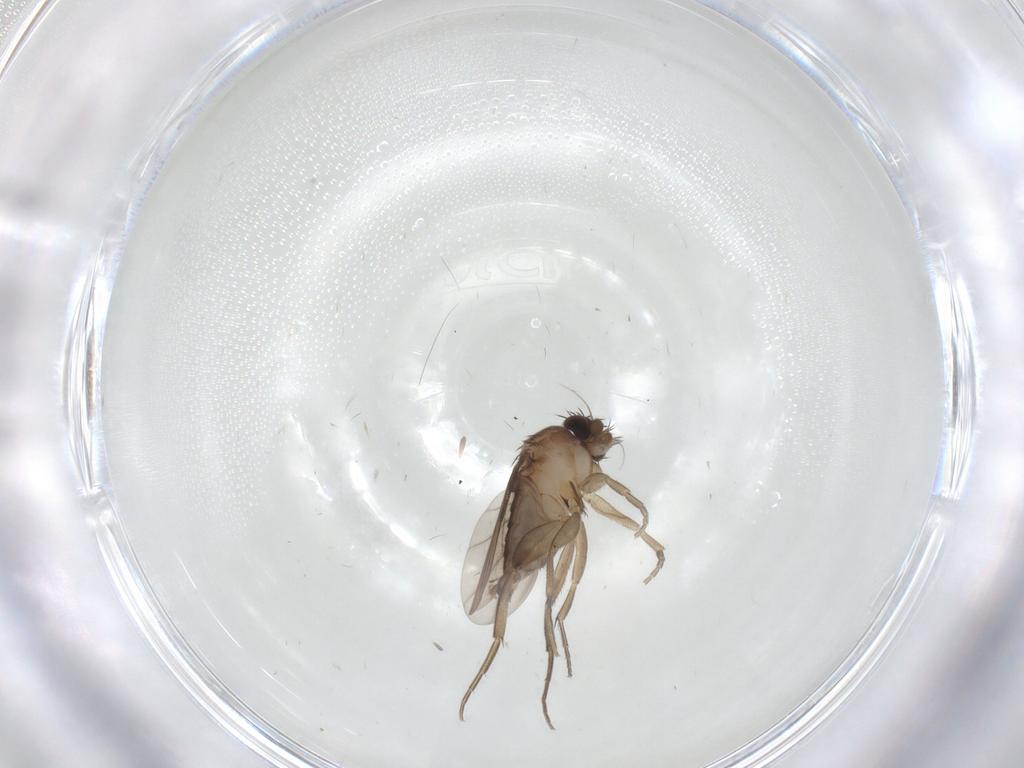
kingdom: Animalia
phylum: Arthropoda
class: Insecta
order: Diptera
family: Phoridae
